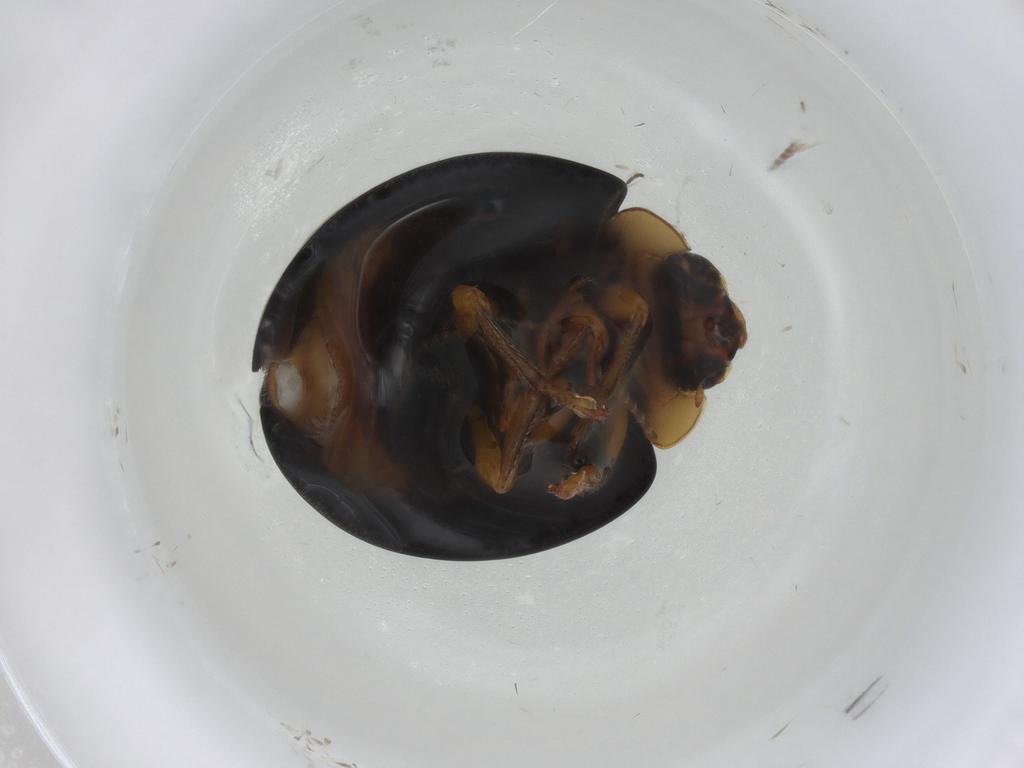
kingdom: Animalia
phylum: Arthropoda
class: Insecta
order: Coleoptera
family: Coccinellidae
